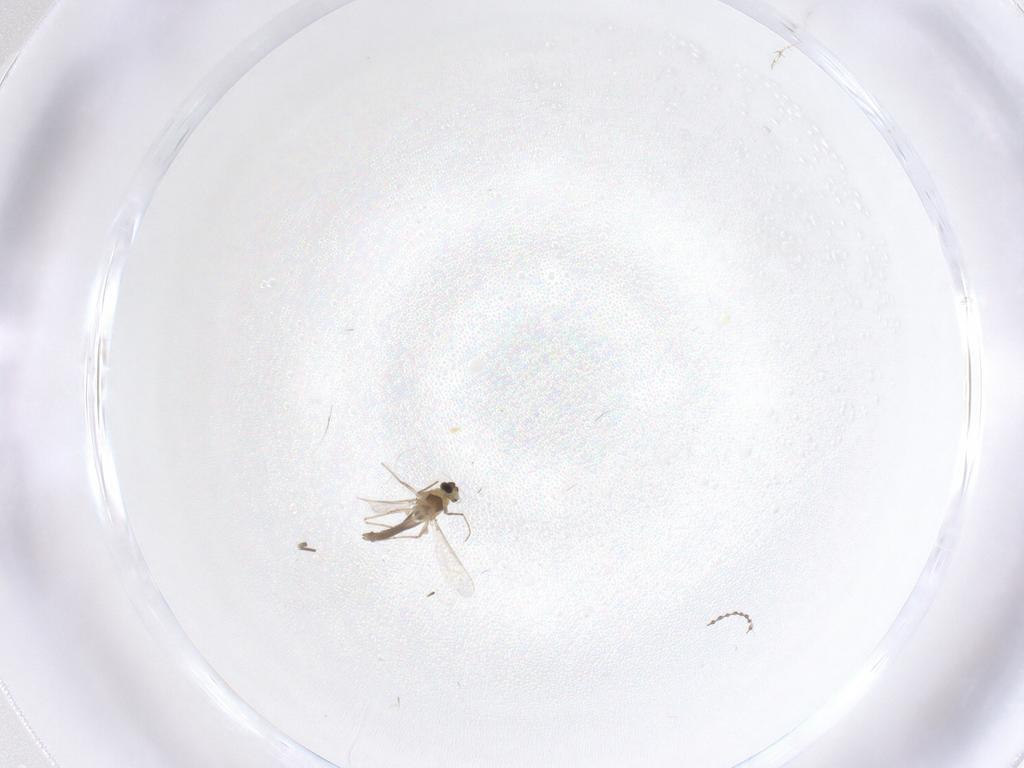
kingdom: Animalia
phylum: Arthropoda
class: Insecta
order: Diptera
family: Chironomidae
